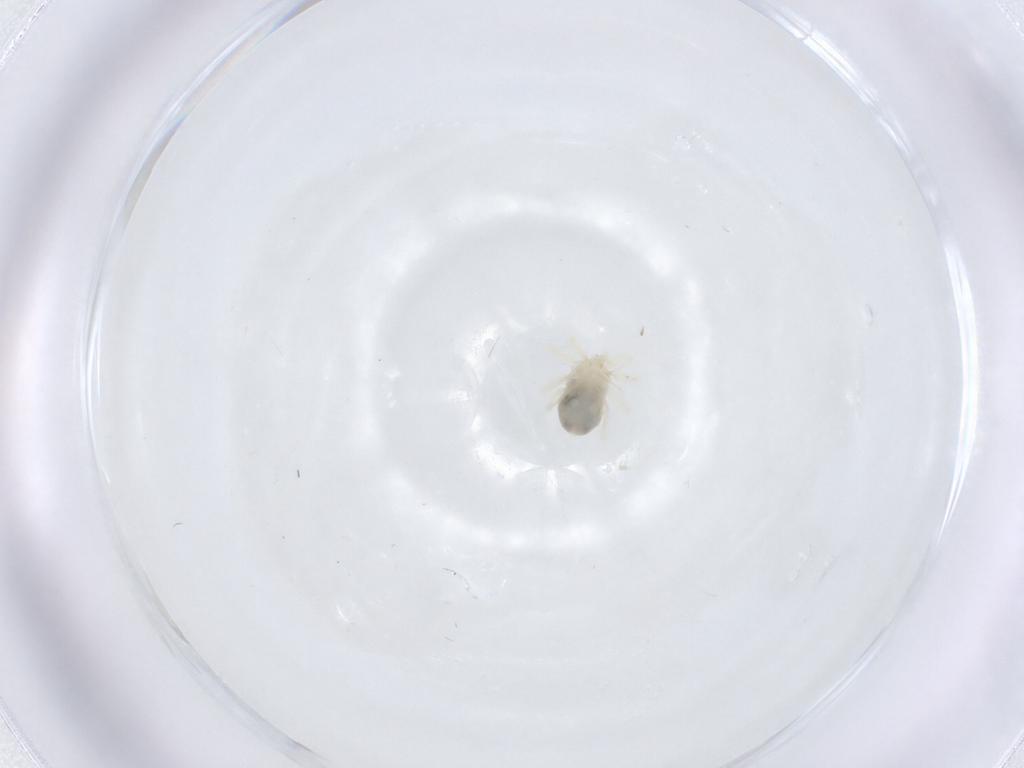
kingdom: Animalia
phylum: Arthropoda
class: Arachnida
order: Trombidiformes
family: Anystidae
